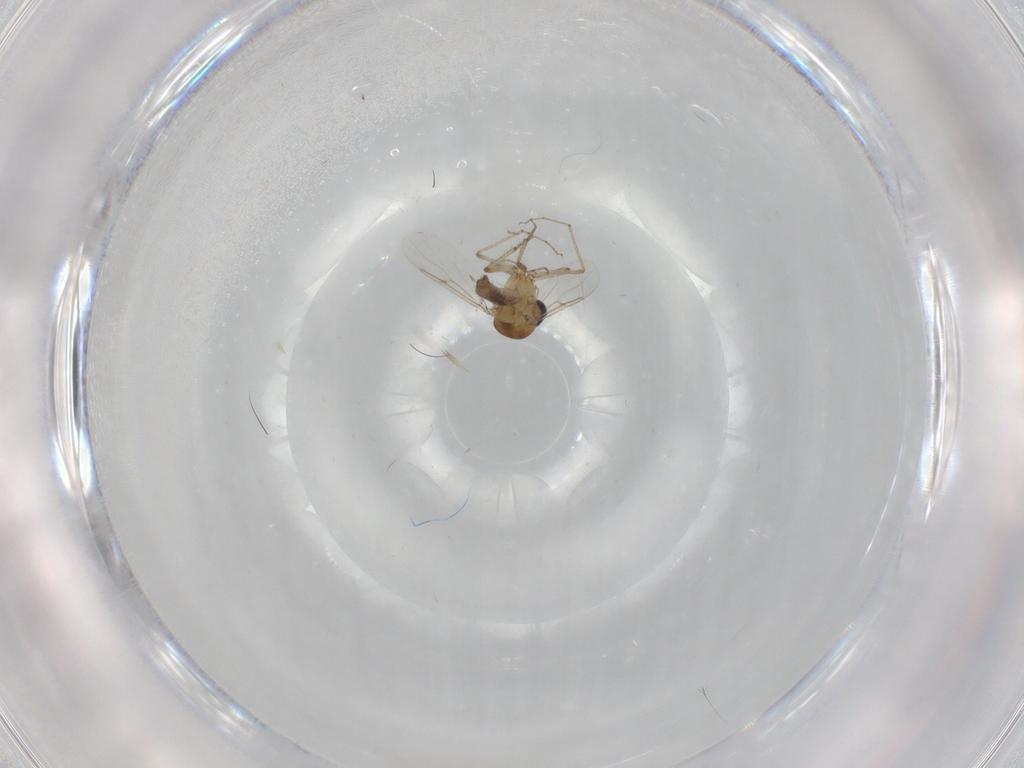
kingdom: Animalia
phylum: Arthropoda
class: Insecta
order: Diptera
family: Cecidomyiidae
